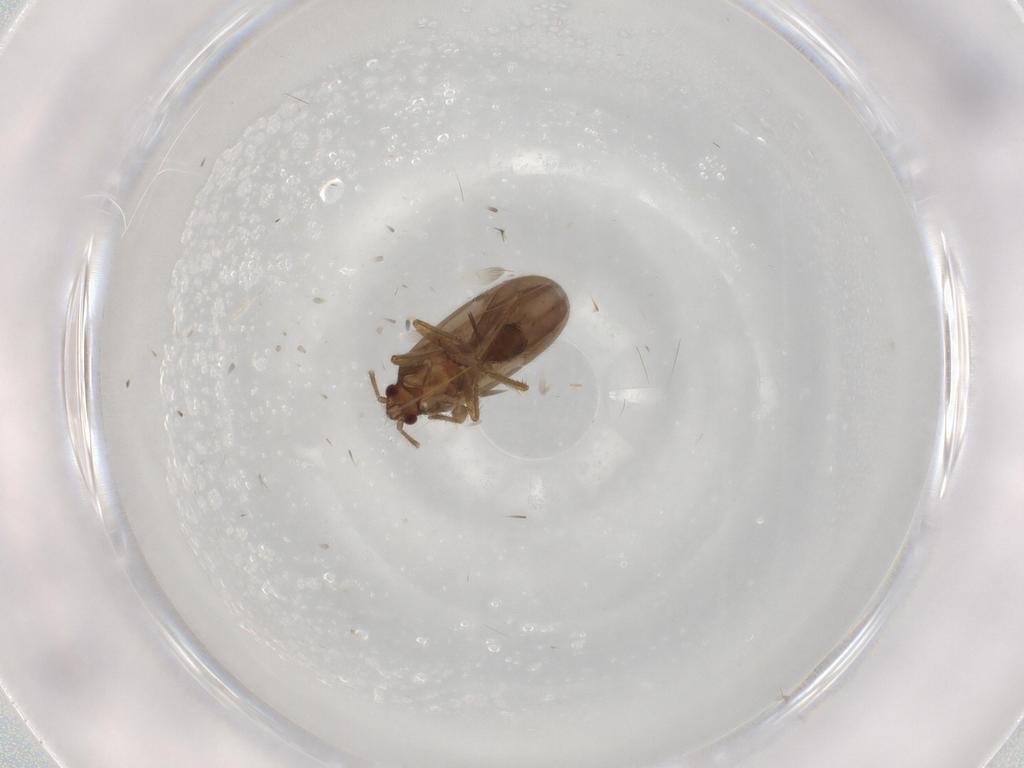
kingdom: Animalia
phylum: Arthropoda
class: Insecta
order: Hemiptera
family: Ceratocombidae
